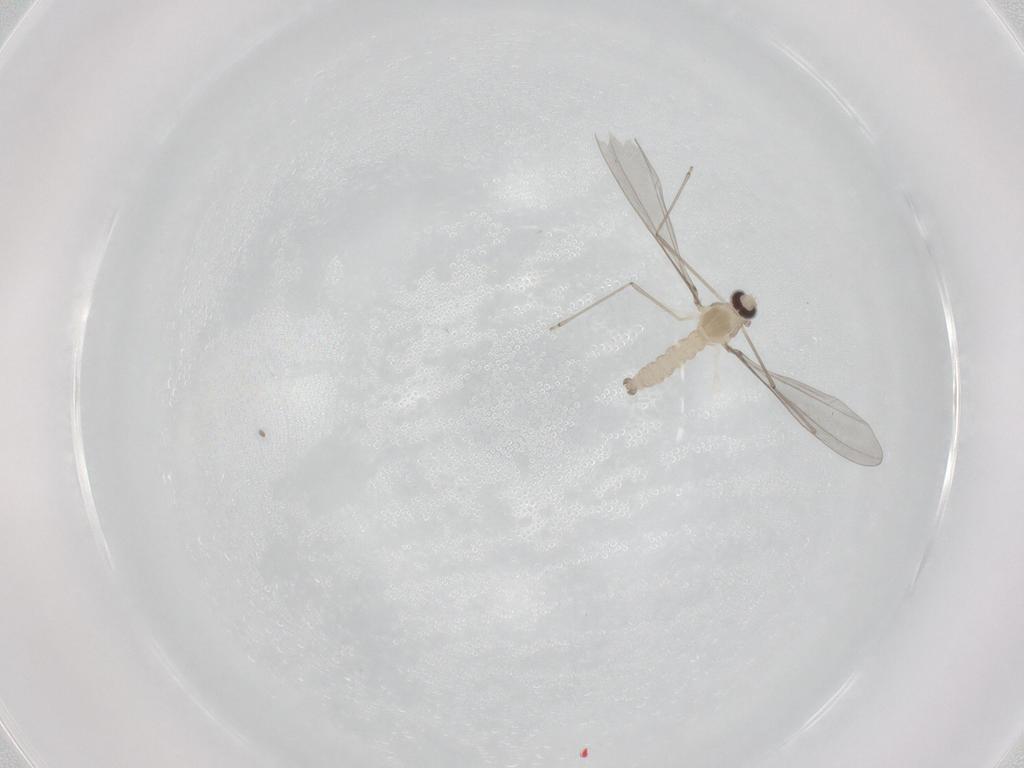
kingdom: Animalia
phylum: Arthropoda
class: Insecta
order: Diptera
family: Cecidomyiidae
